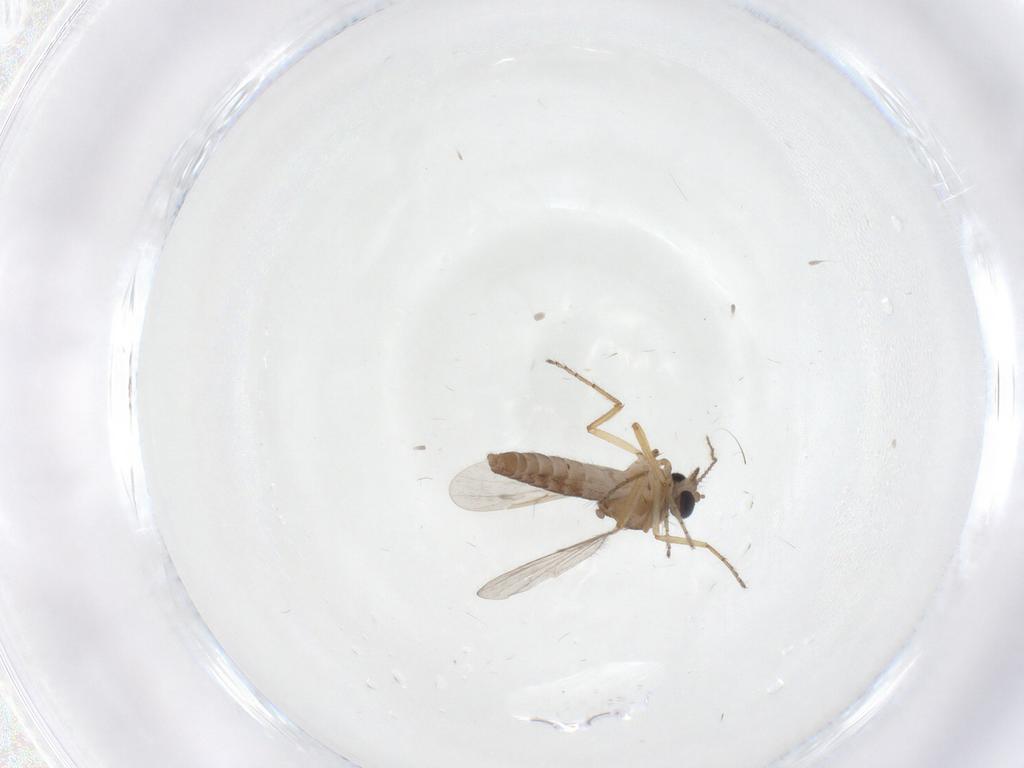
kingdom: Animalia
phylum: Arthropoda
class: Insecta
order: Diptera
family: Ceratopogonidae
